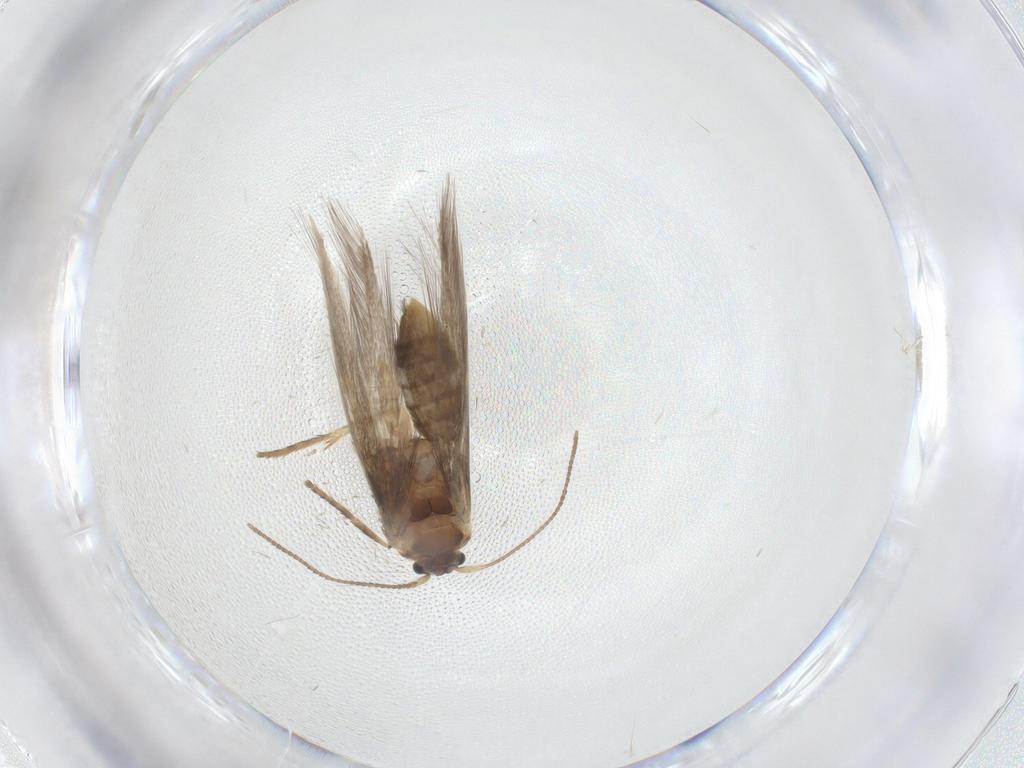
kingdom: Animalia
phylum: Arthropoda
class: Insecta
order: Lepidoptera
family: Nepticulidae
